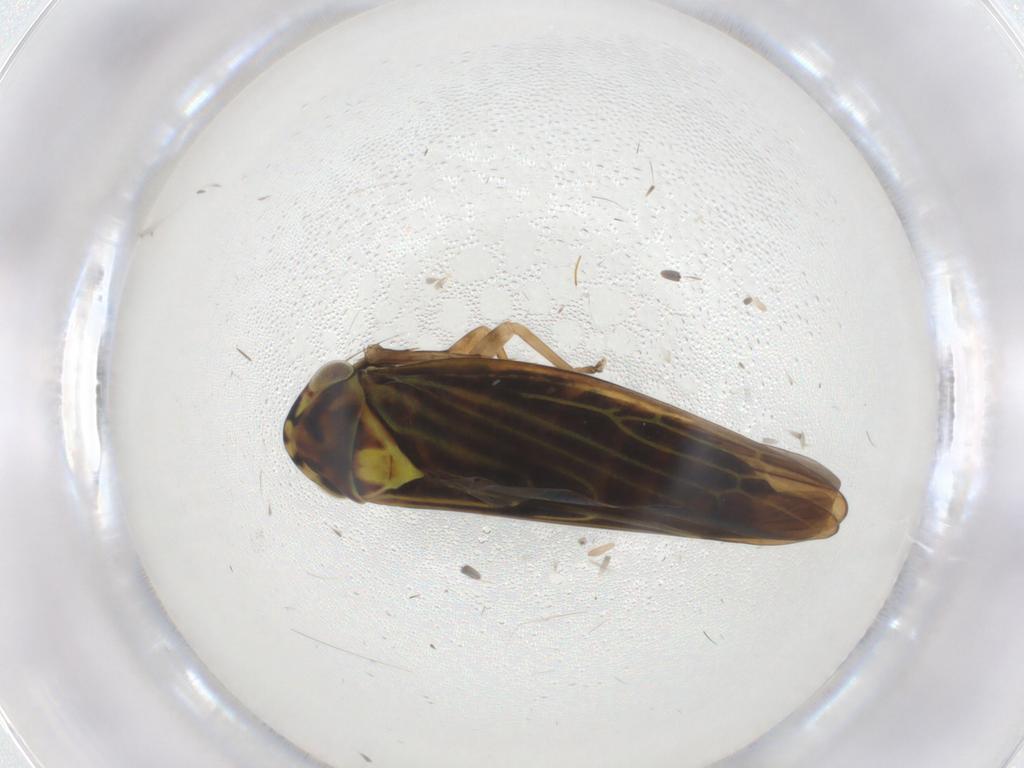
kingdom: Animalia
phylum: Arthropoda
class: Insecta
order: Hemiptera
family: Cicadellidae
